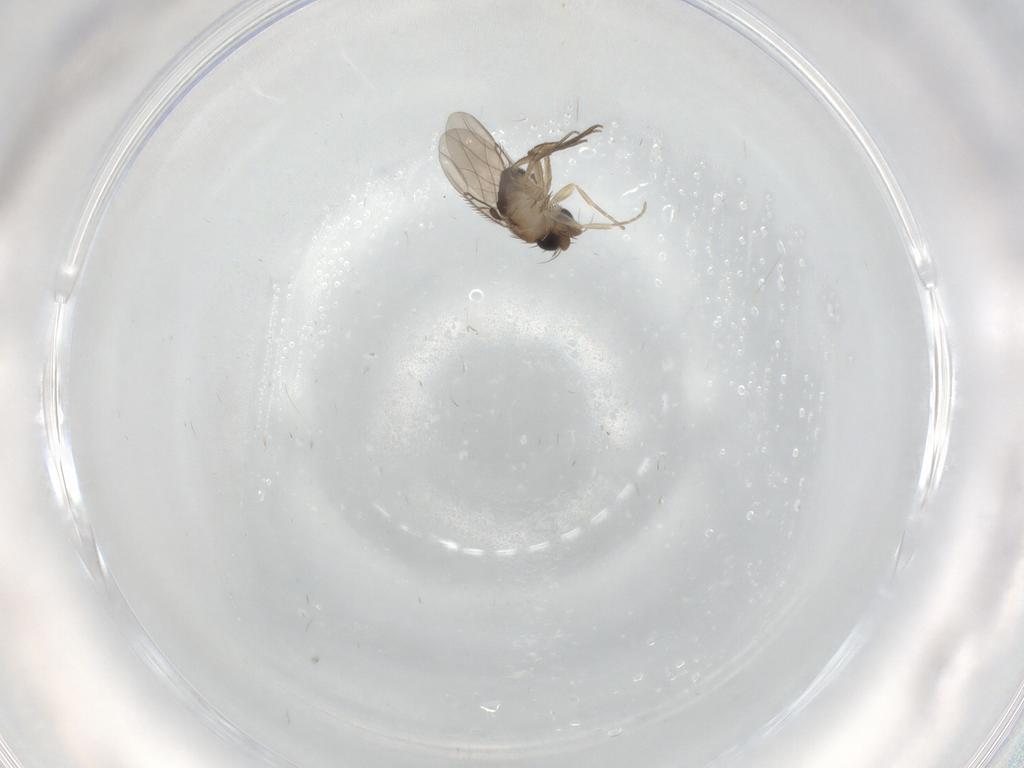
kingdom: Animalia
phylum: Arthropoda
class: Insecta
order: Diptera
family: Phoridae
